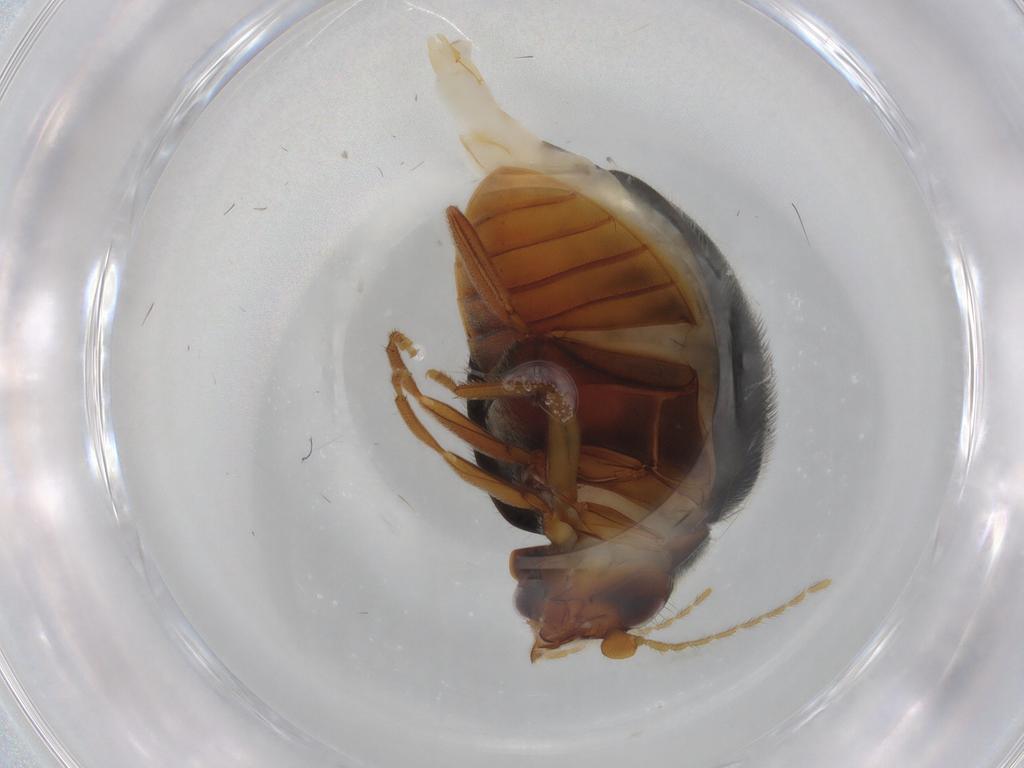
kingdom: Animalia
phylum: Arthropoda
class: Insecta
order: Coleoptera
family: Scirtidae
